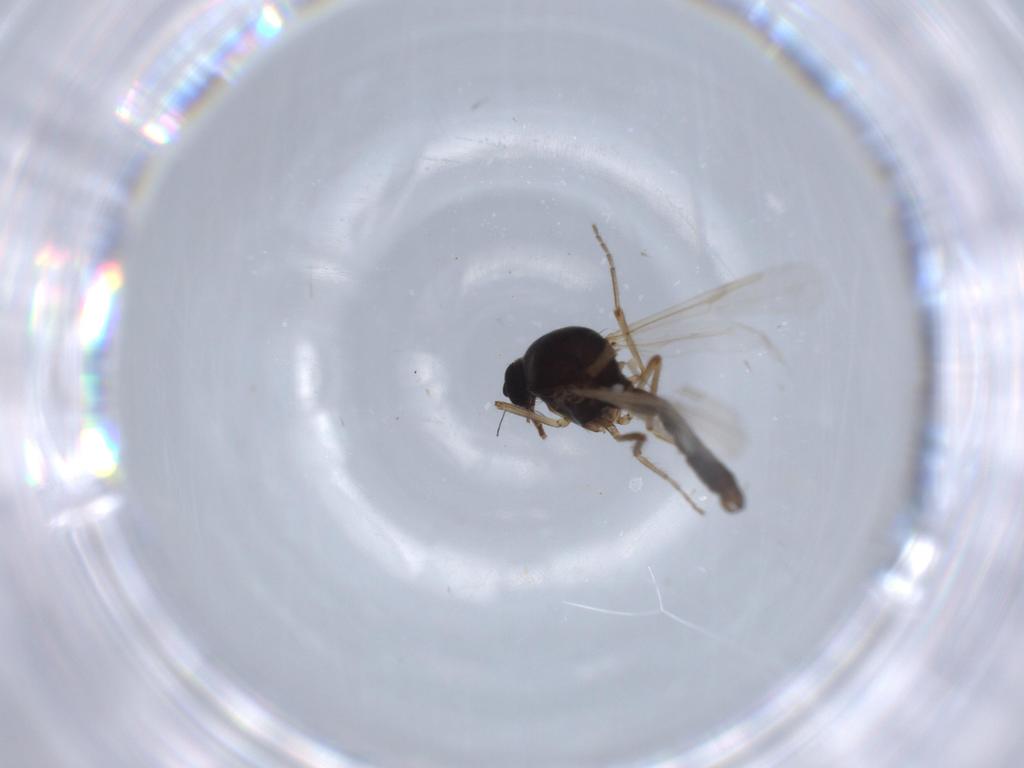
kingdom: Animalia
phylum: Arthropoda
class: Insecta
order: Diptera
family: Ceratopogonidae
